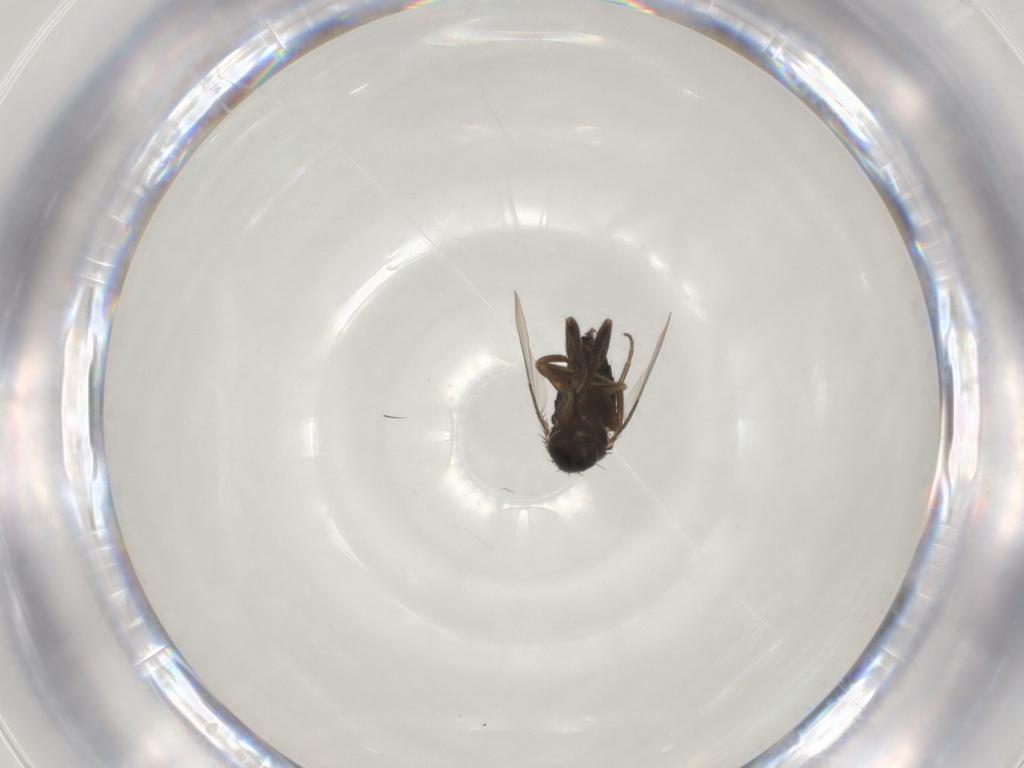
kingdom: Animalia
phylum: Arthropoda
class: Insecta
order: Diptera
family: Phoridae
